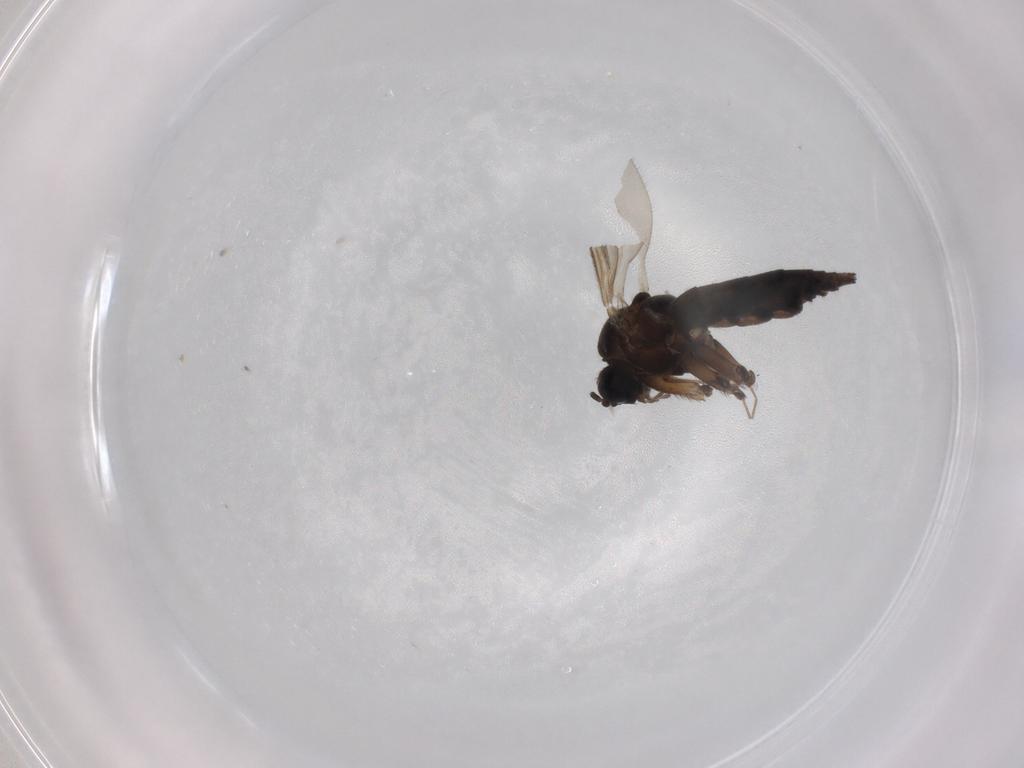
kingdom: Animalia
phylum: Arthropoda
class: Insecta
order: Diptera
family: Chironomidae
